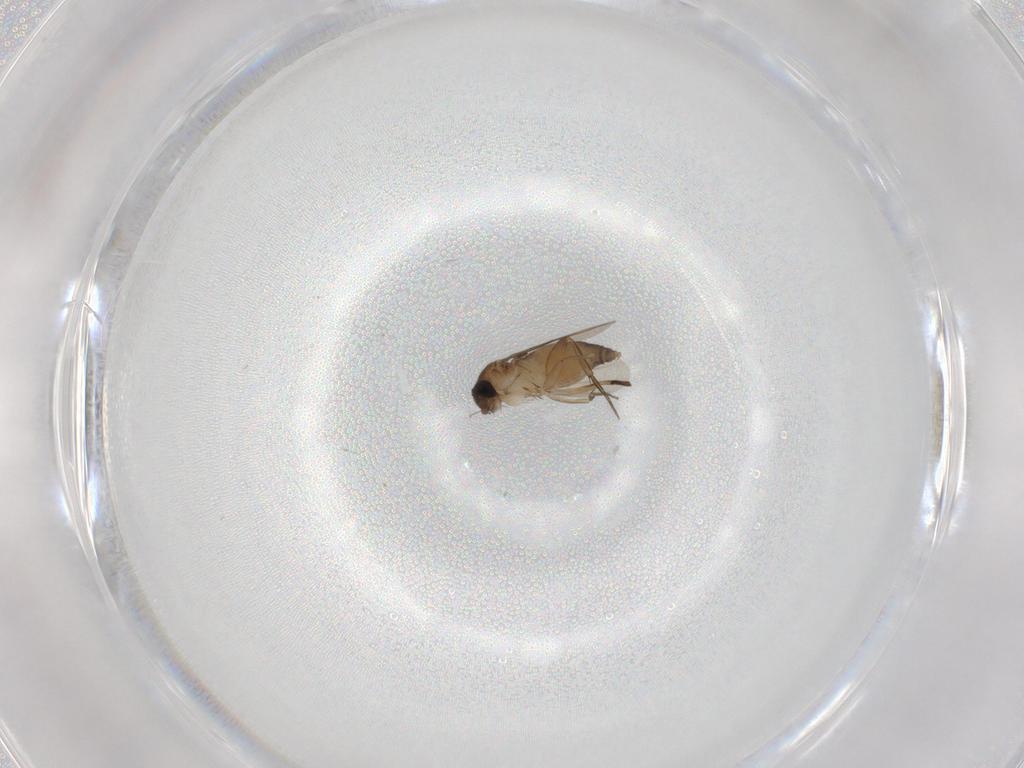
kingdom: Animalia
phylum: Arthropoda
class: Insecta
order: Diptera
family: Phoridae
